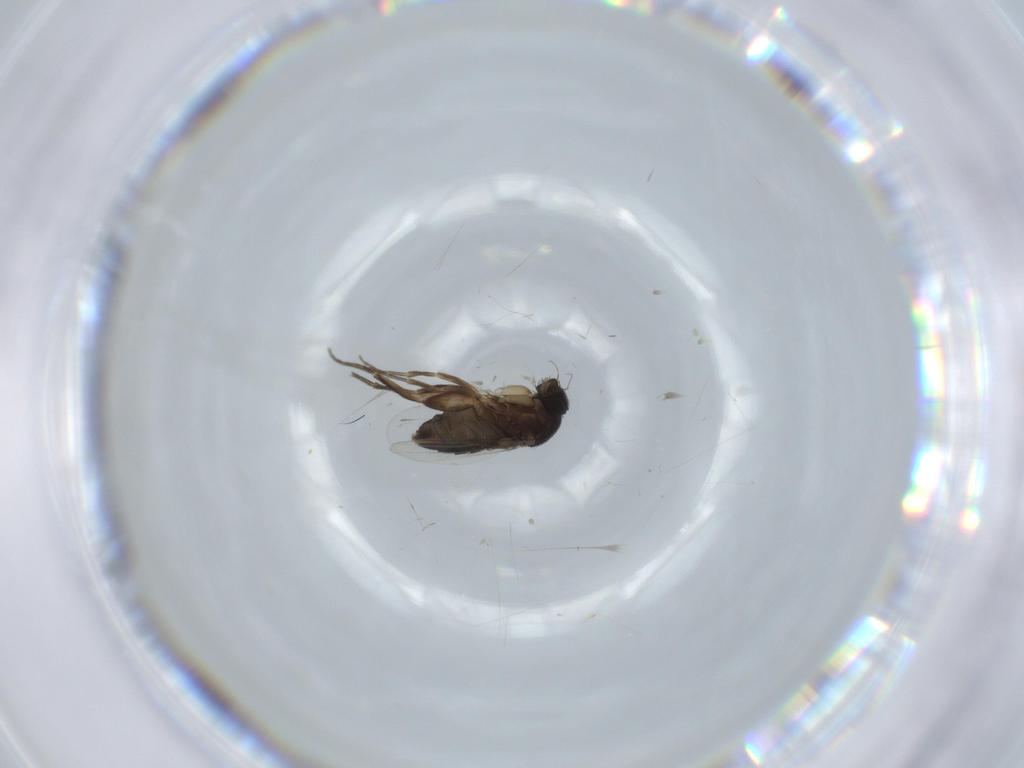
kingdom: Animalia
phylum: Arthropoda
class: Insecta
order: Diptera
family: Phoridae
